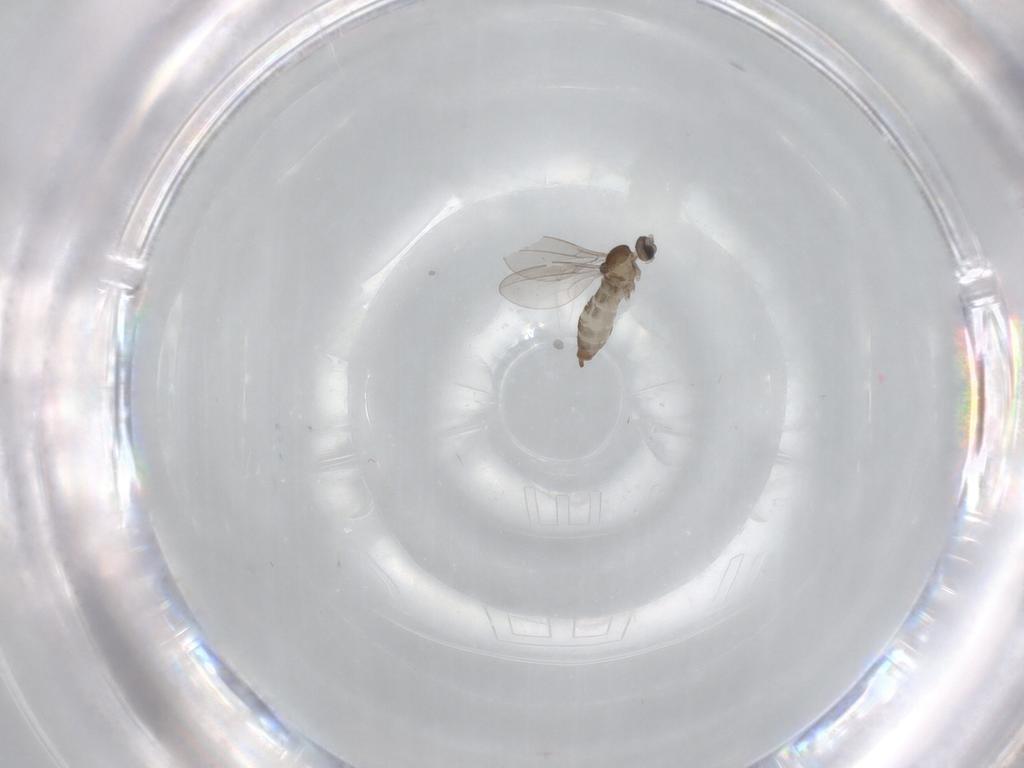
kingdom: Animalia
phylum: Arthropoda
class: Insecta
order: Diptera
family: Cecidomyiidae
